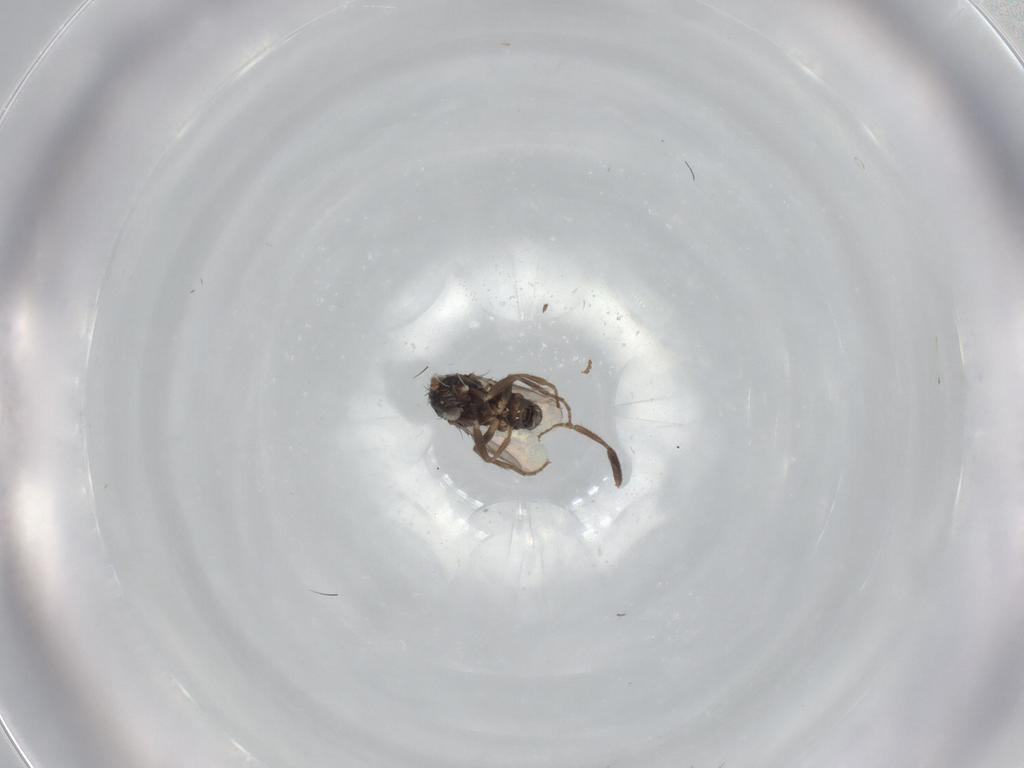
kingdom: Animalia
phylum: Arthropoda
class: Insecta
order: Diptera
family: Sphaeroceridae
